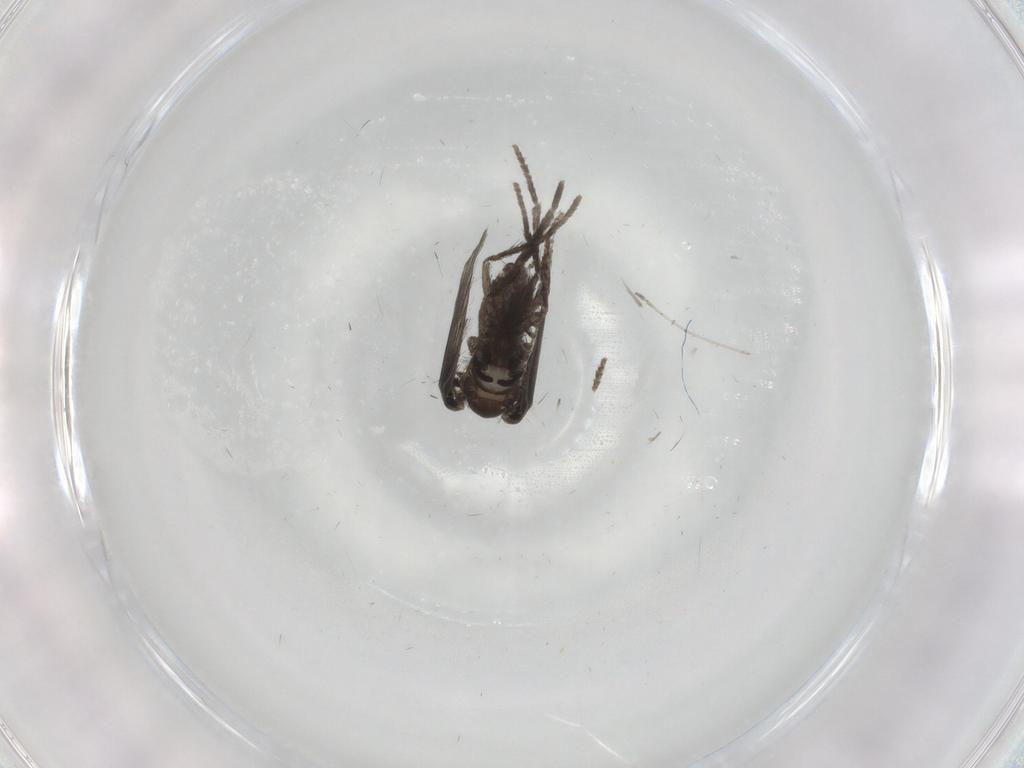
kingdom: Animalia
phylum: Arthropoda
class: Insecta
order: Diptera
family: Psychodidae
